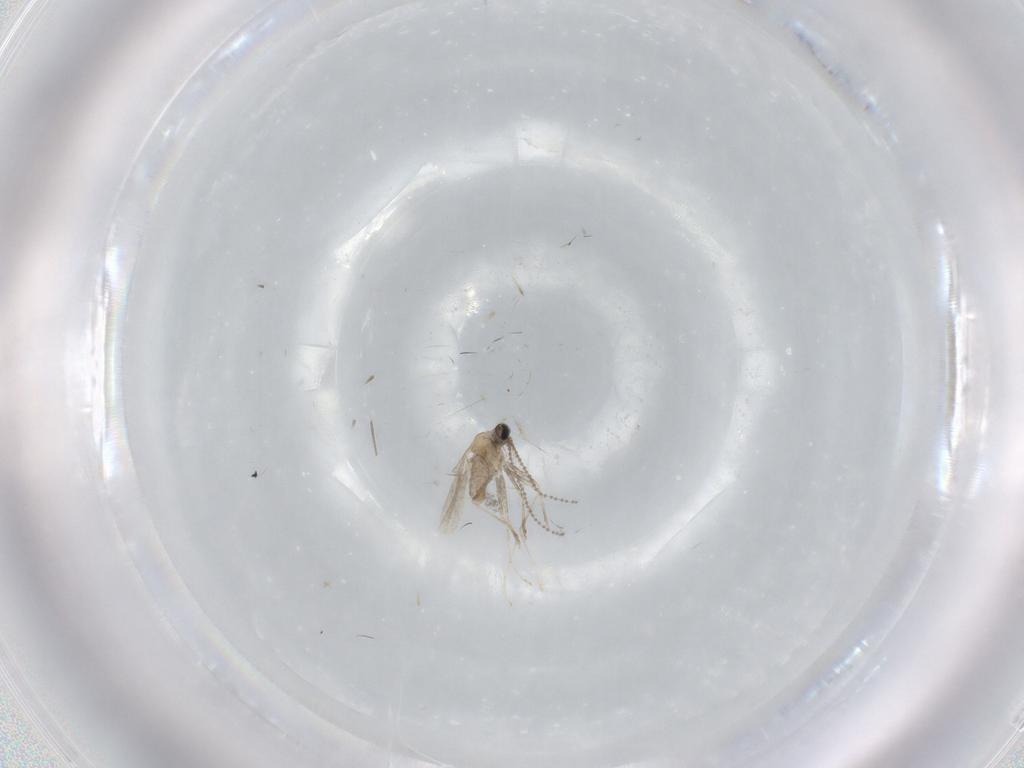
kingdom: Animalia
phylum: Arthropoda
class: Insecta
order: Diptera
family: Cecidomyiidae
